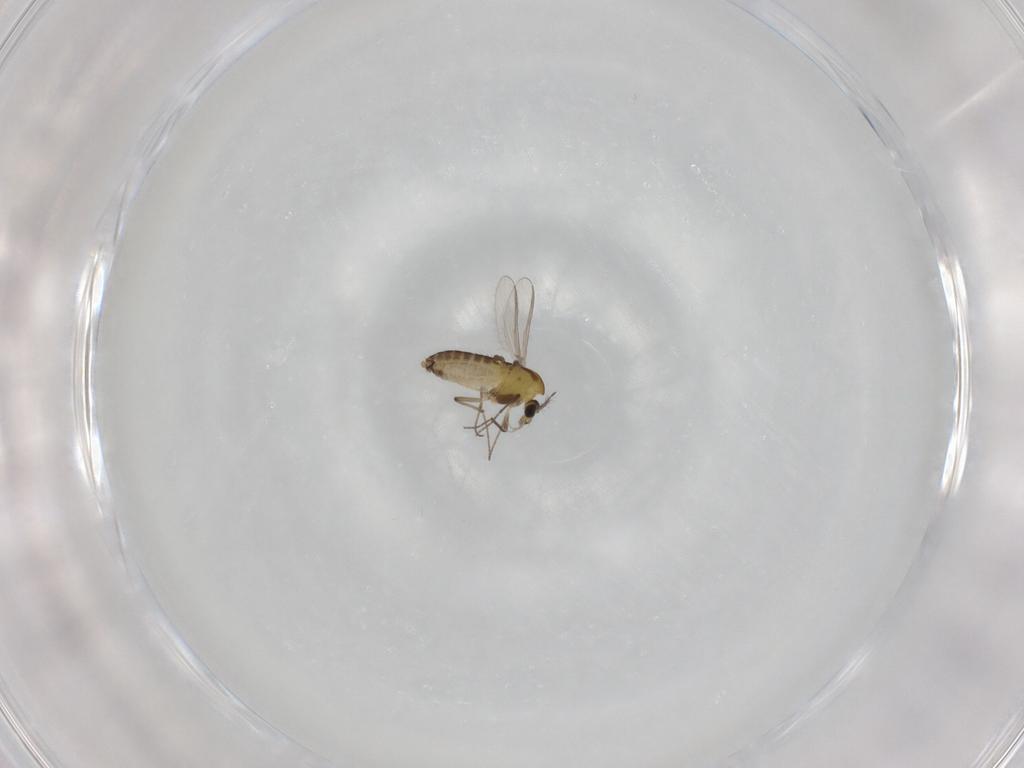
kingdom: Animalia
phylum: Arthropoda
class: Insecta
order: Diptera
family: Chironomidae
